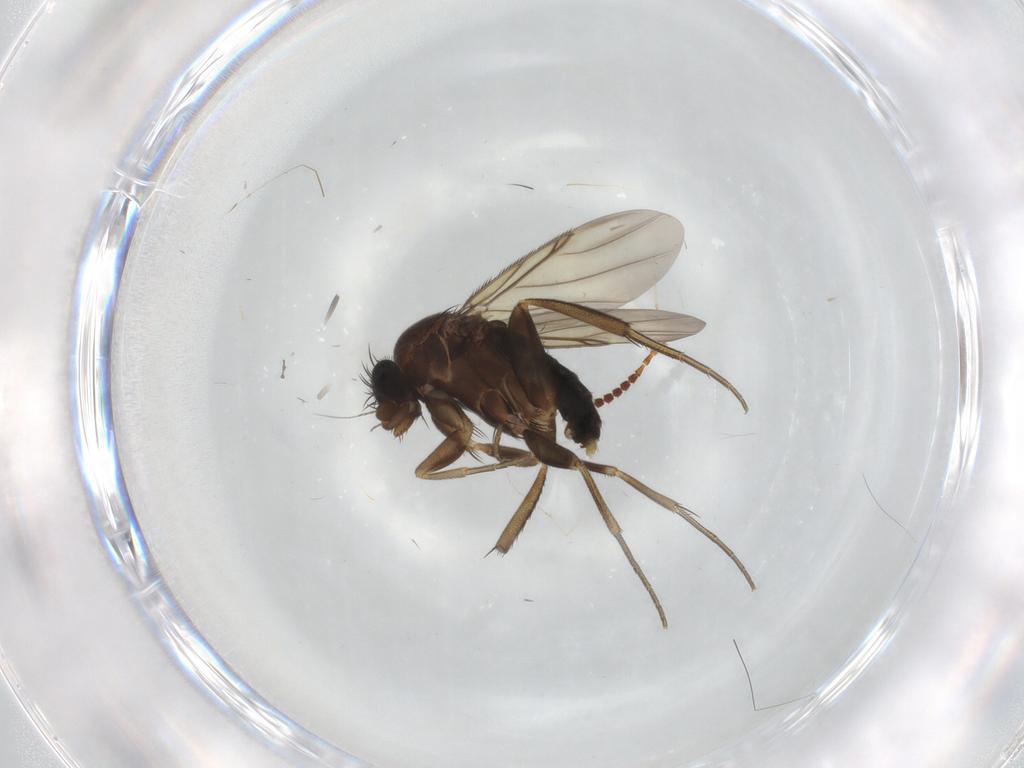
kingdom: Animalia
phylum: Arthropoda
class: Insecta
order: Diptera
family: Phoridae
